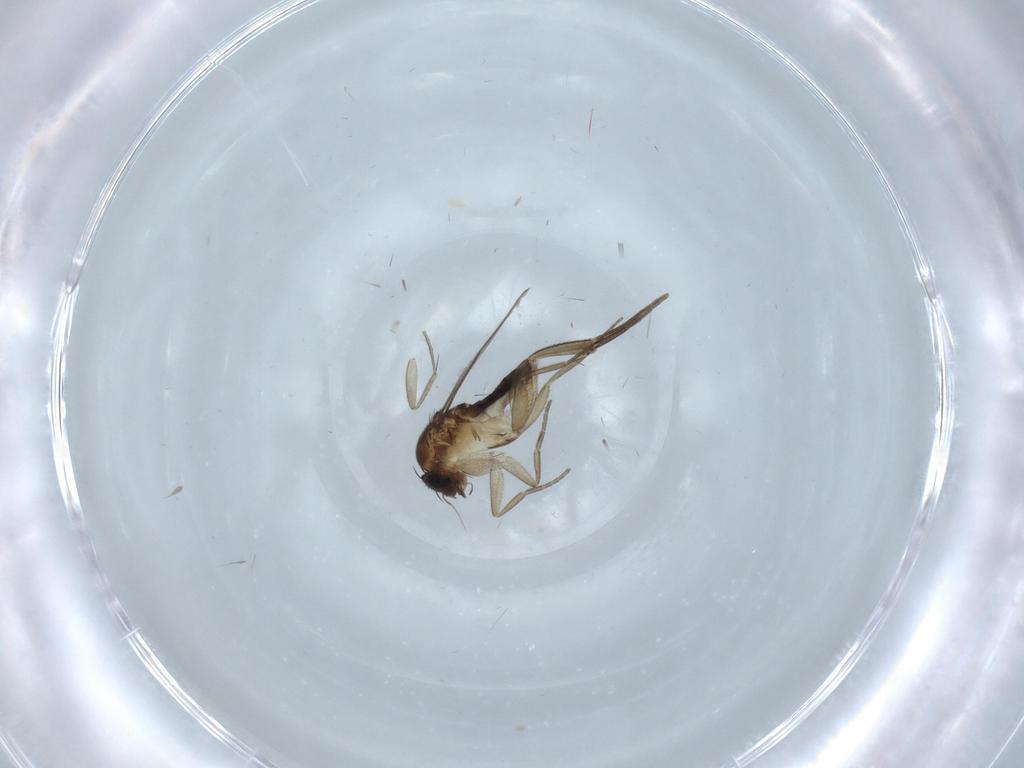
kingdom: Animalia
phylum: Arthropoda
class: Insecta
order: Diptera
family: Phoridae
